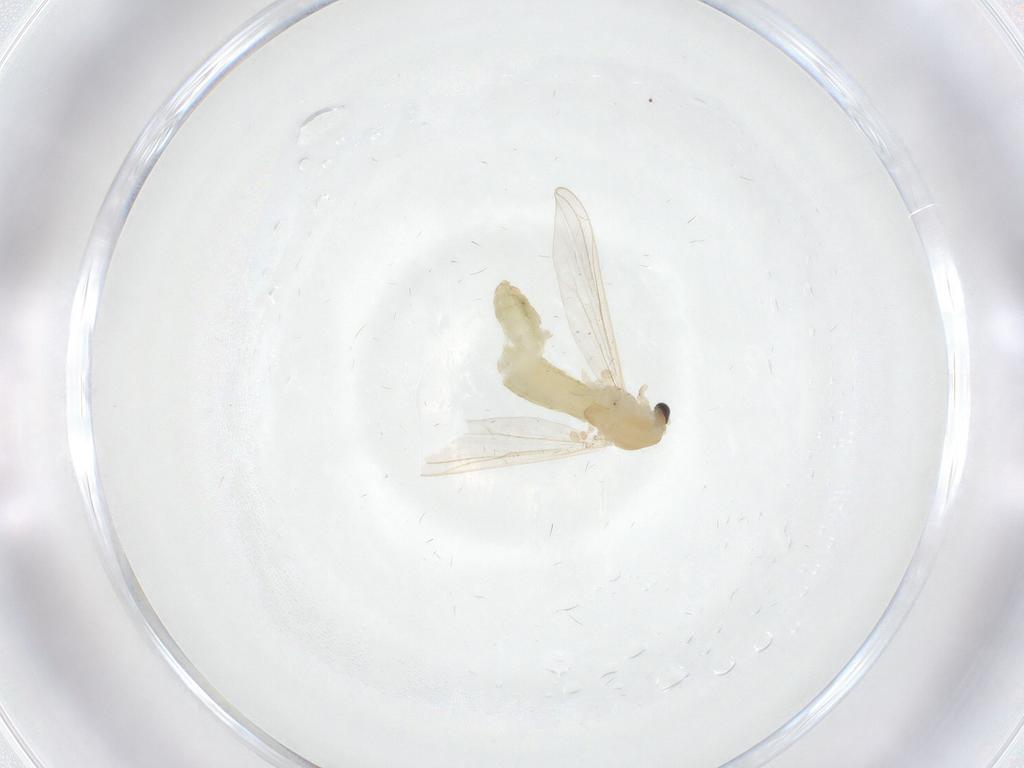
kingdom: Animalia
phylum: Arthropoda
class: Insecta
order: Diptera
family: Chironomidae
